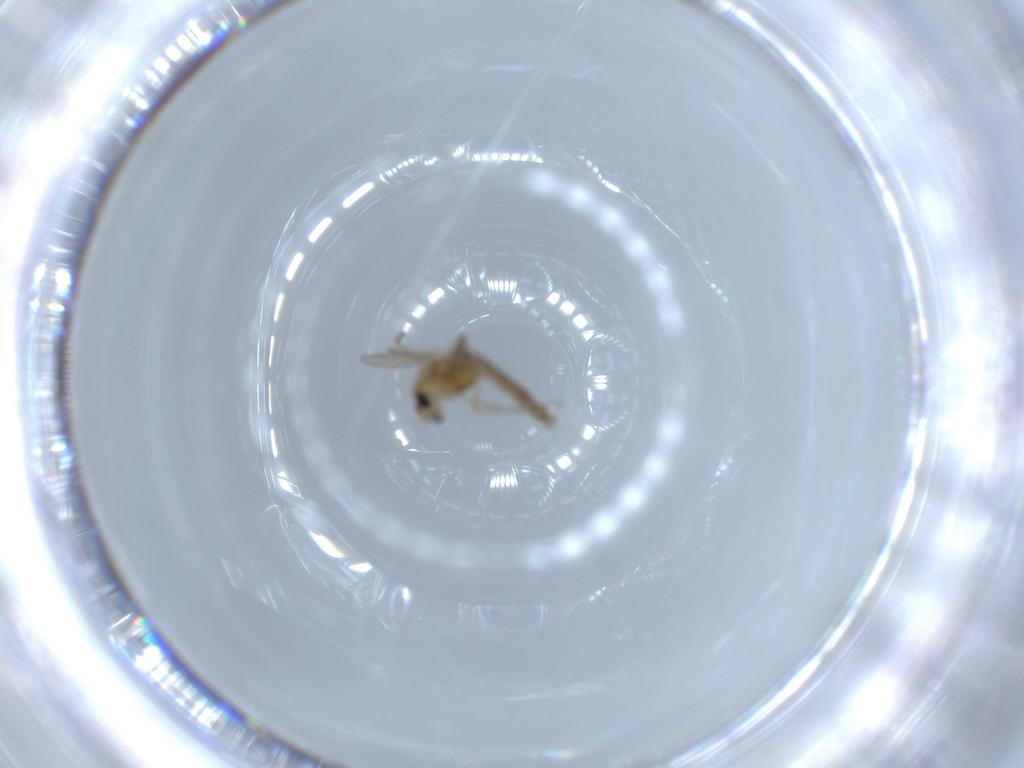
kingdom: Animalia
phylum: Arthropoda
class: Insecta
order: Diptera
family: Chironomidae
